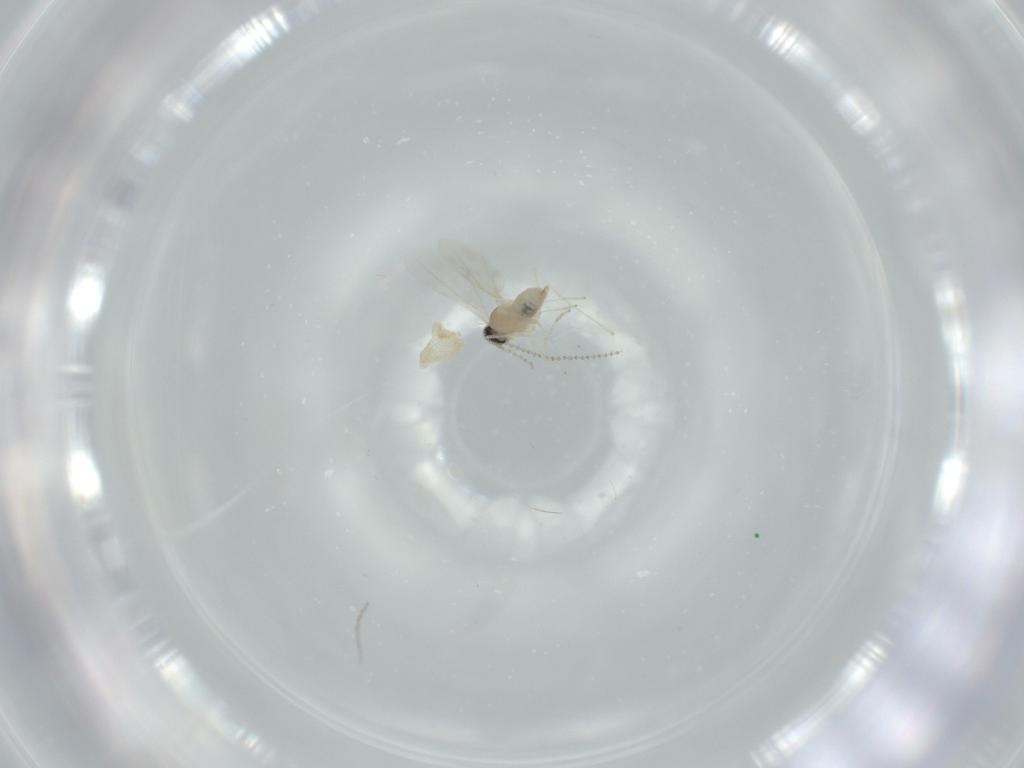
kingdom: Animalia
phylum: Arthropoda
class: Insecta
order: Diptera
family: Cecidomyiidae
